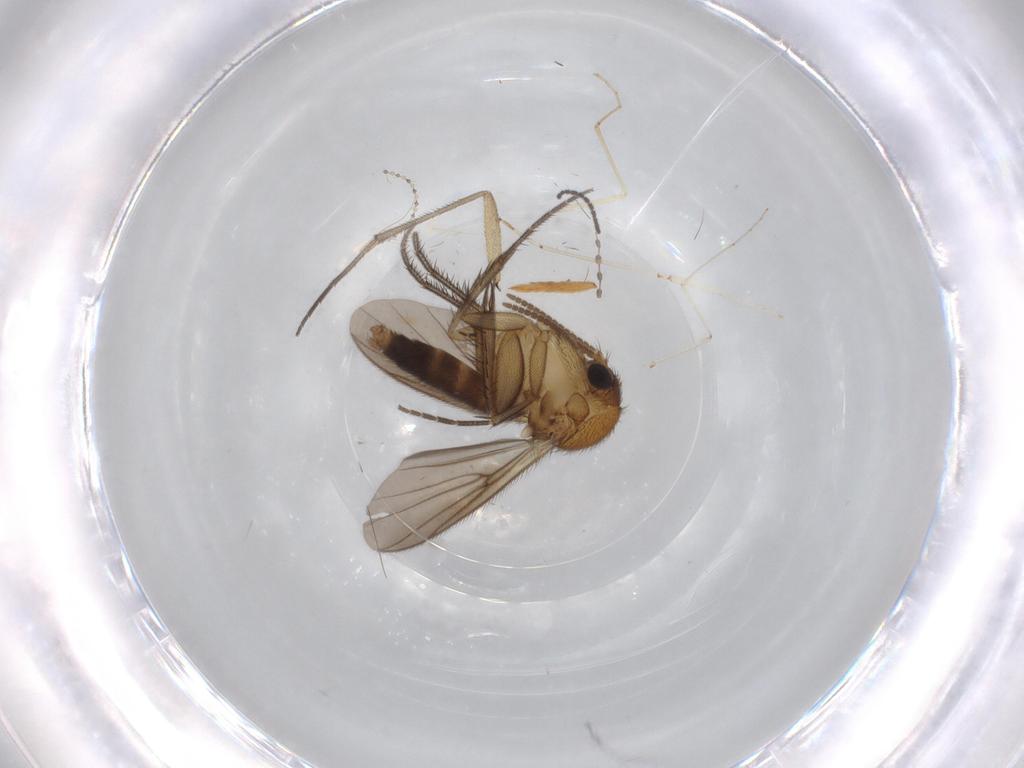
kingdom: Animalia
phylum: Arthropoda
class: Insecta
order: Diptera
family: Mycetophilidae
